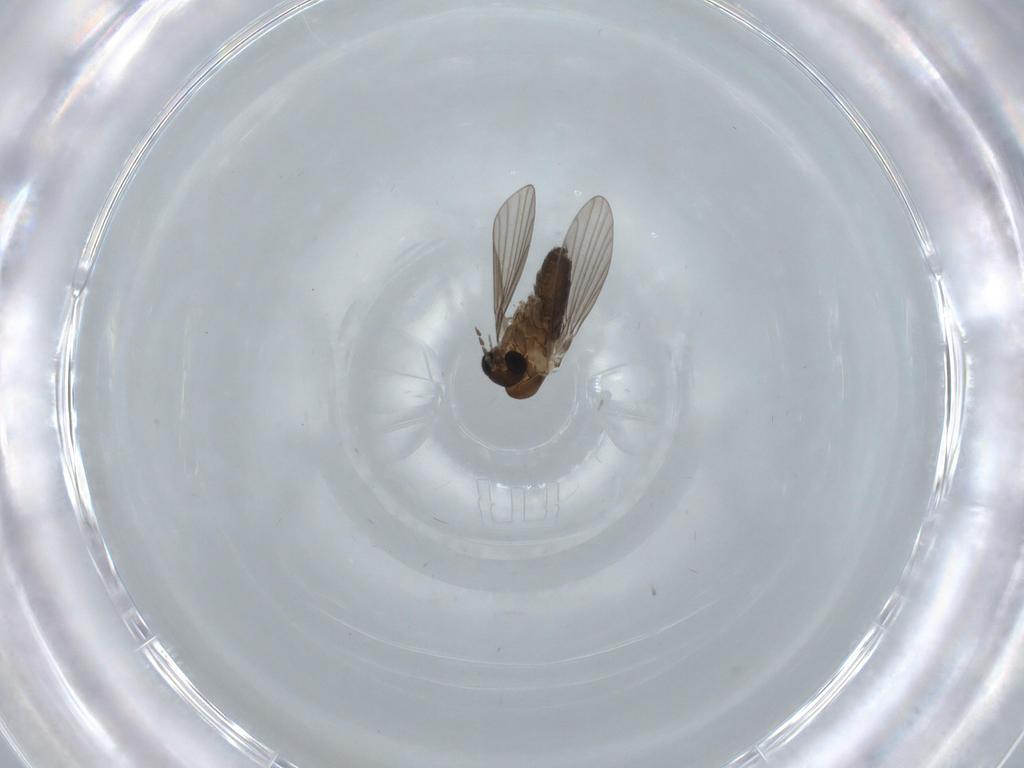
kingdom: Animalia
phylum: Arthropoda
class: Insecta
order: Diptera
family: Psychodidae
